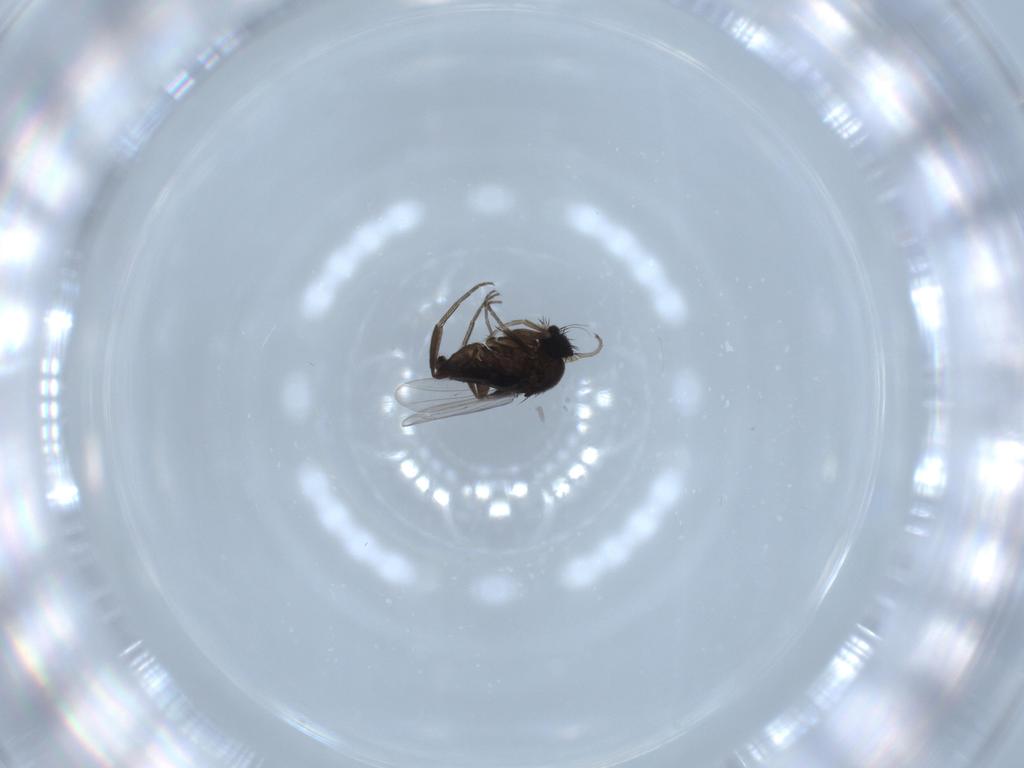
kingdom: Animalia
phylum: Arthropoda
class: Insecta
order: Diptera
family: Phoridae
